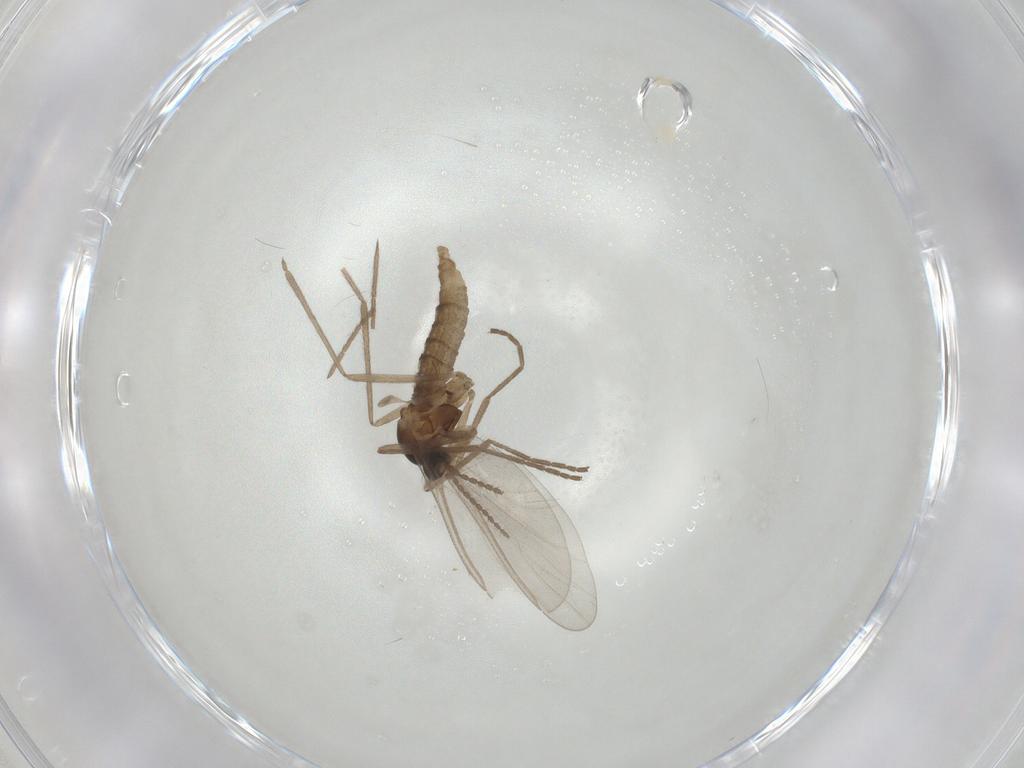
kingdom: Animalia
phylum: Arthropoda
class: Insecta
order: Diptera
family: Cecidomyiidae
